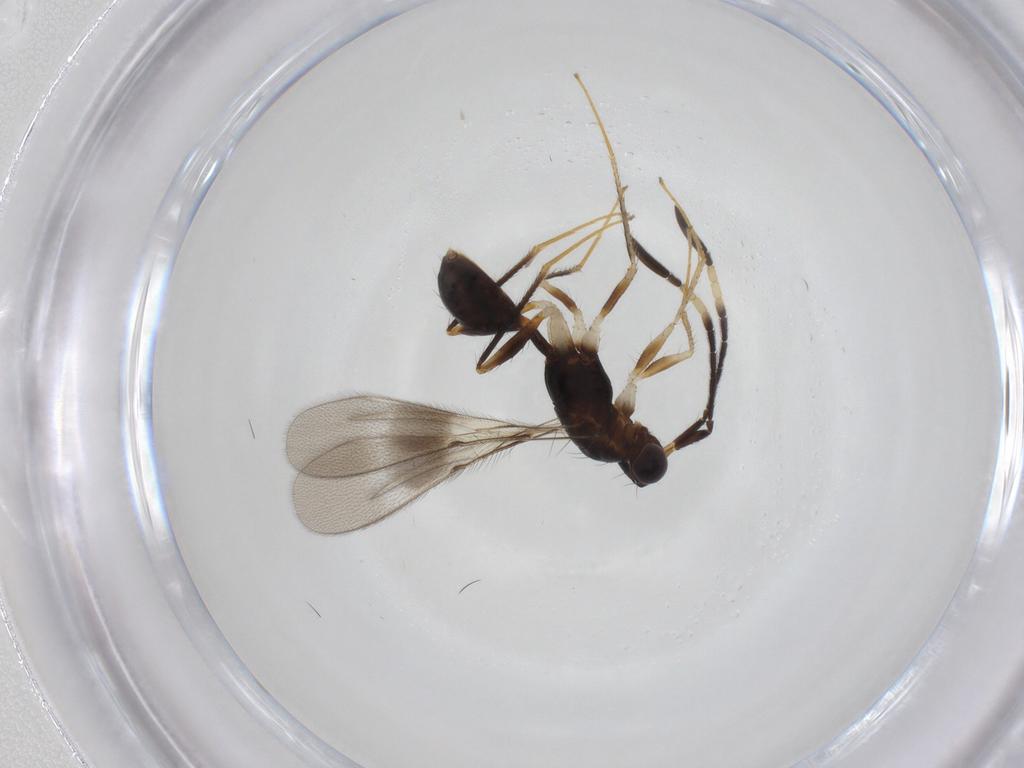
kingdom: Animalia
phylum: Arthropoda
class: Insecta
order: Hymenoptera
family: Mymaridae
